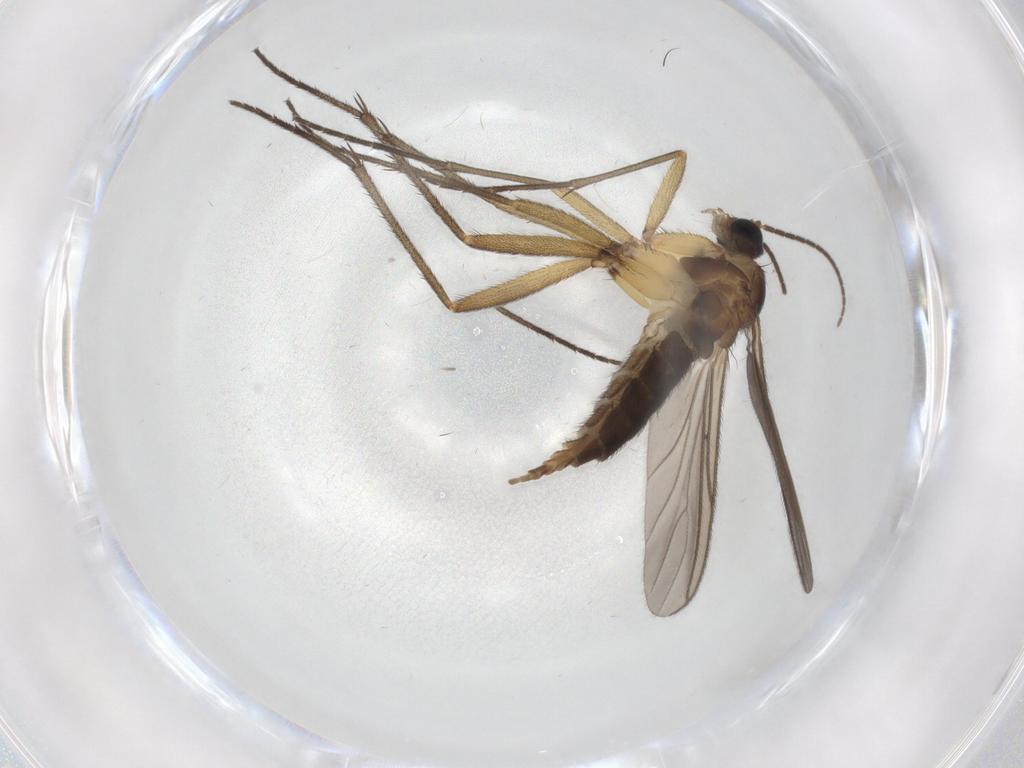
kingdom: Animalia
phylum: Arthropoda
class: Insecta
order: Diptera
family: Sciaridae
